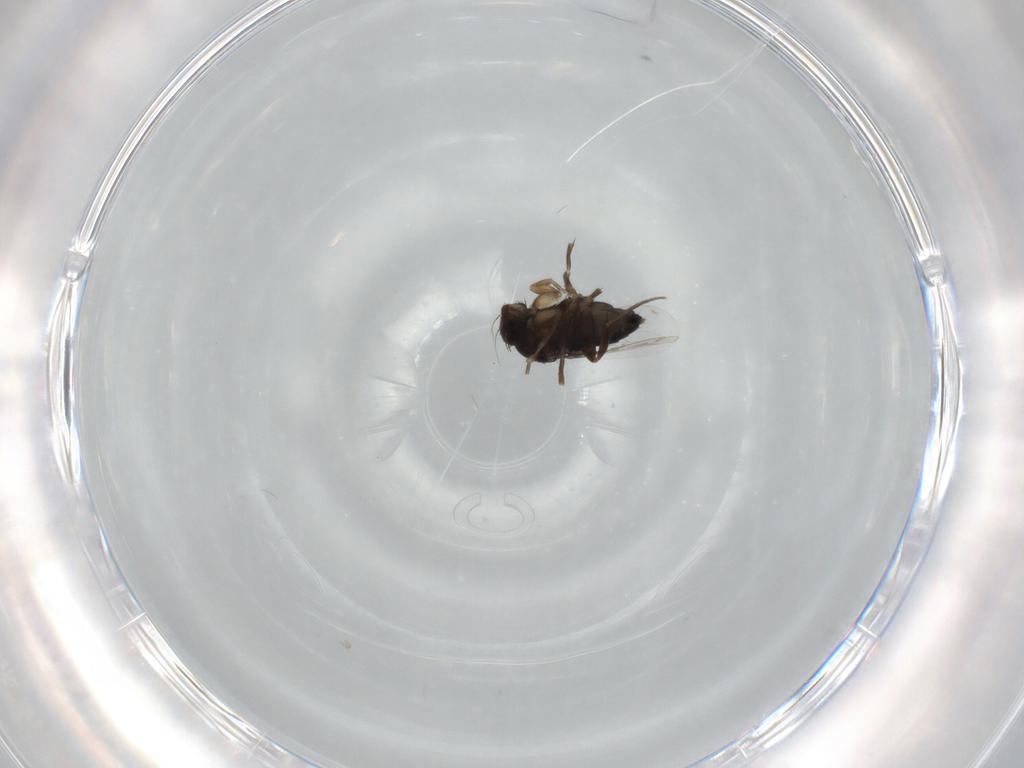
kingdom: Animalia
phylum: Arthropoda
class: Insecta
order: Diptera
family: Phoridae
